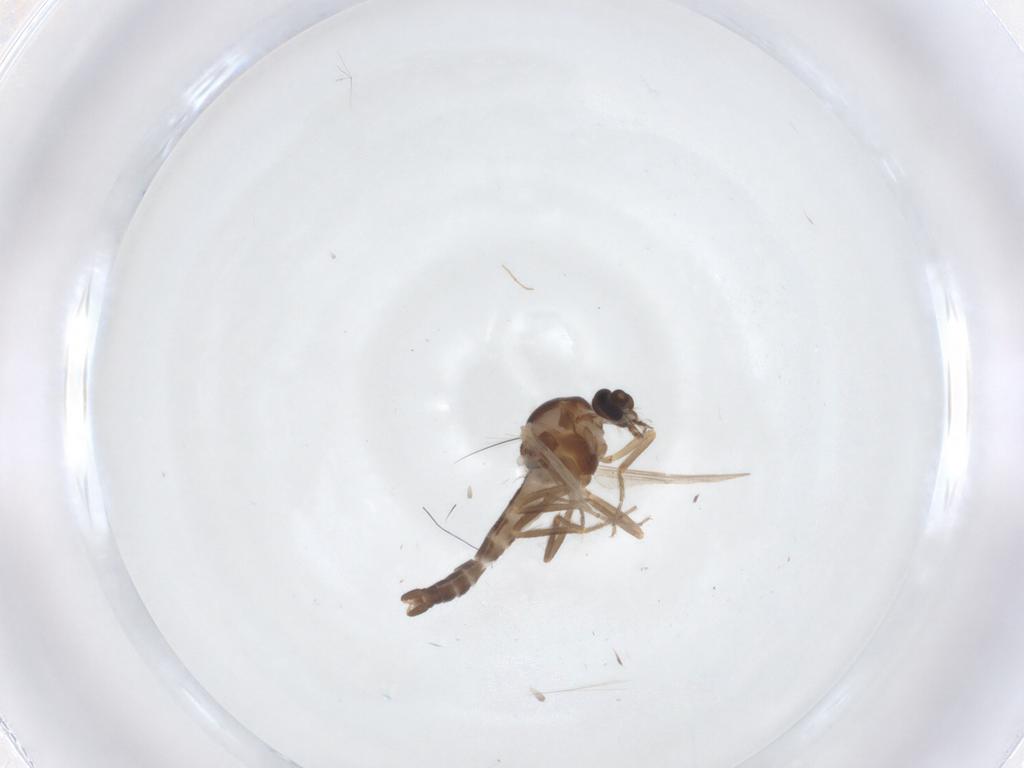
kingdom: Animalia
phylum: Arthropoda
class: Insecta
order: Diptera
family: Ceratopogonidae
